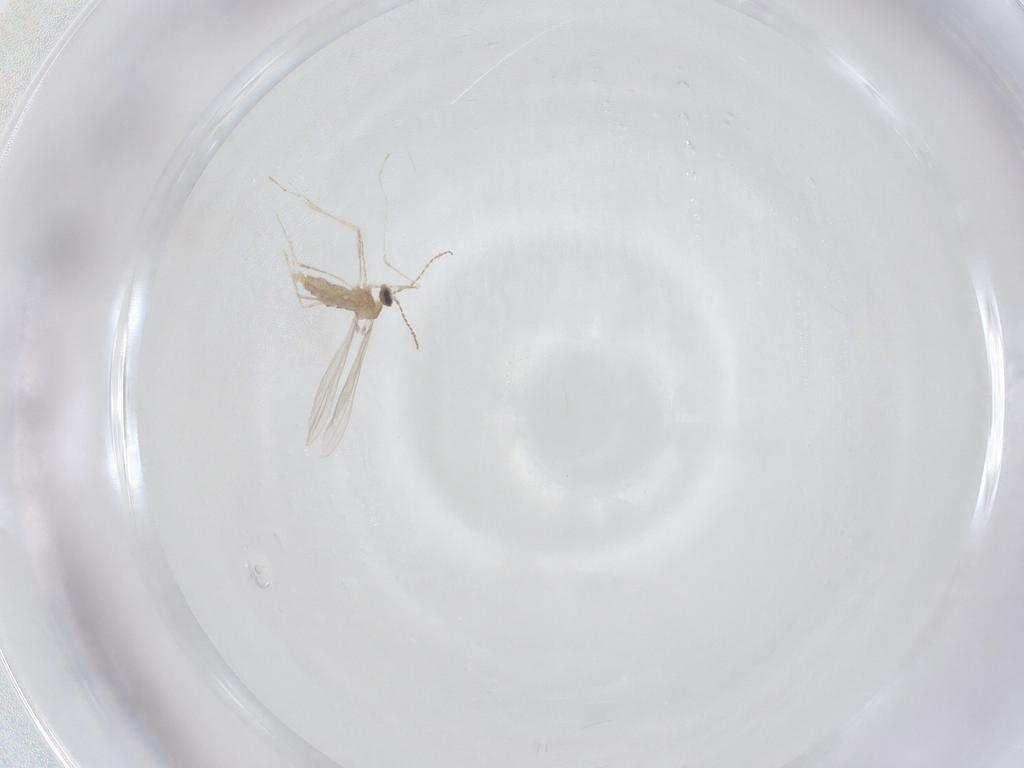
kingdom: Animalia
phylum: Arthropoda
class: Insecta
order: Diptera
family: Cecidomyiidae
